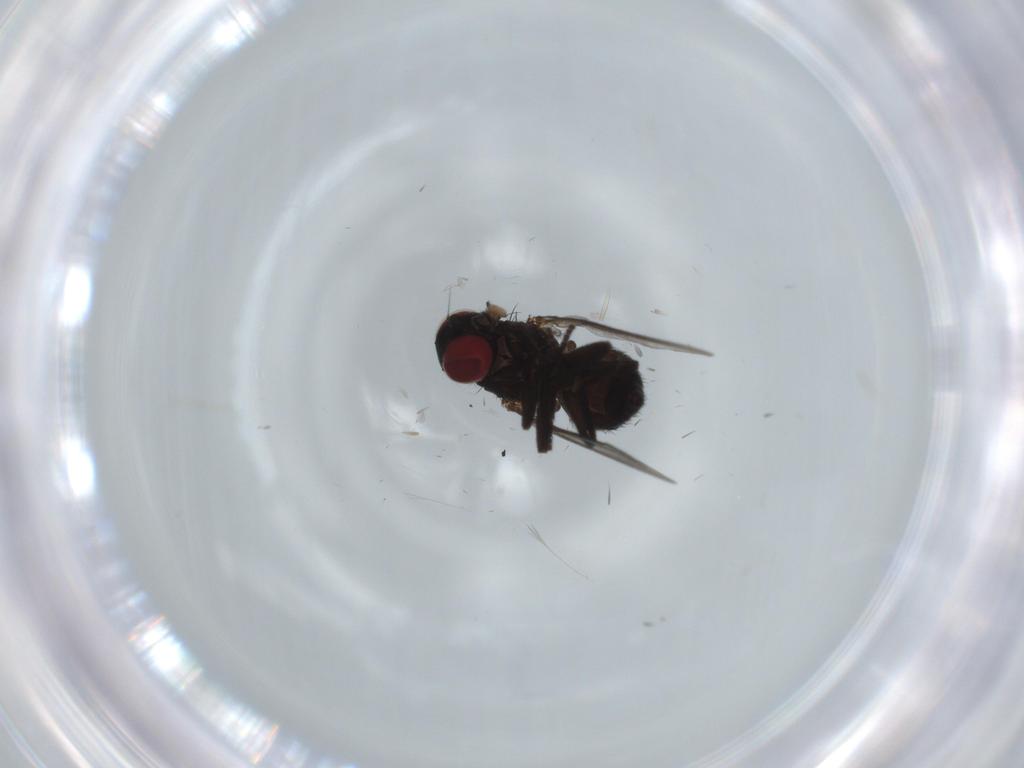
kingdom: Animalia
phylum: Arthropoda
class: Insecta
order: Diptera
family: Agromyzidae
